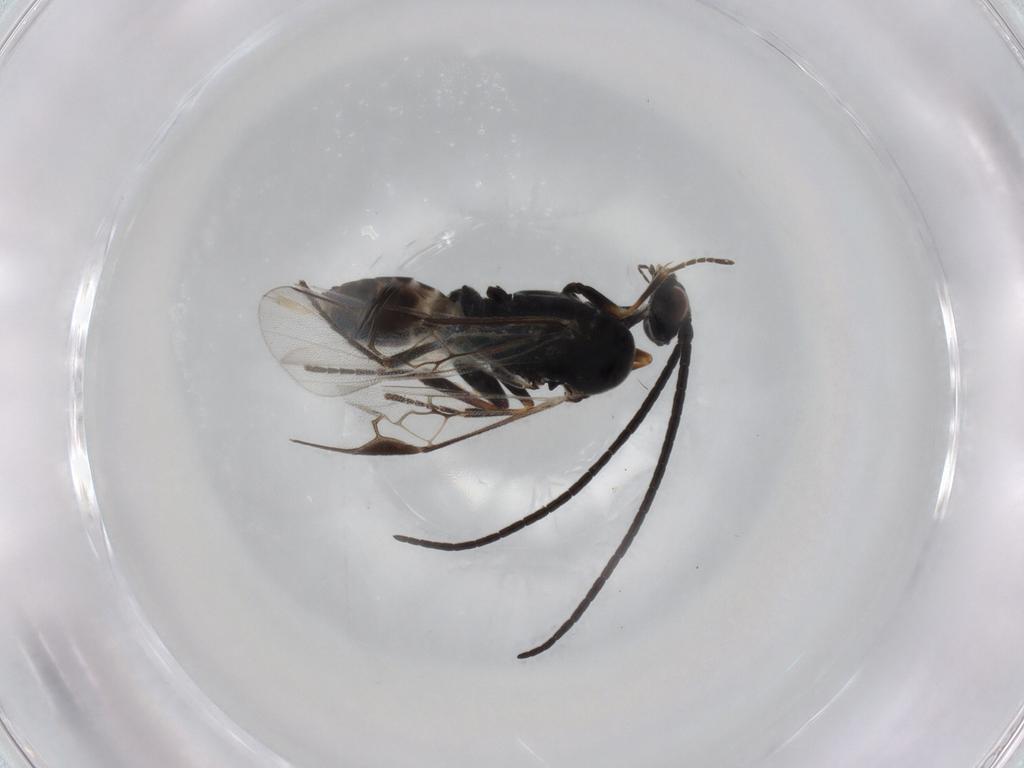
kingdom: Animalia
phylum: Arthropoda
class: Insecta
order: Hymenoptera
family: Braconidae
